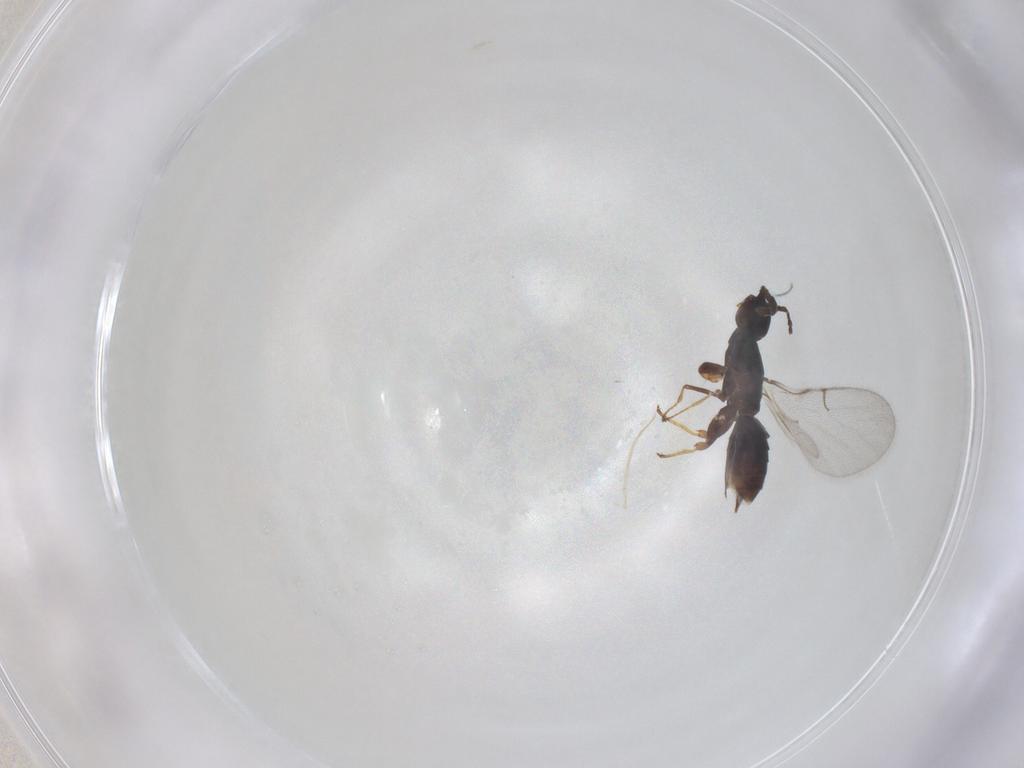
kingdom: Animalia
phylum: Arthropoda
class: Insecta
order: Hymenoptera
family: Agaonidae
